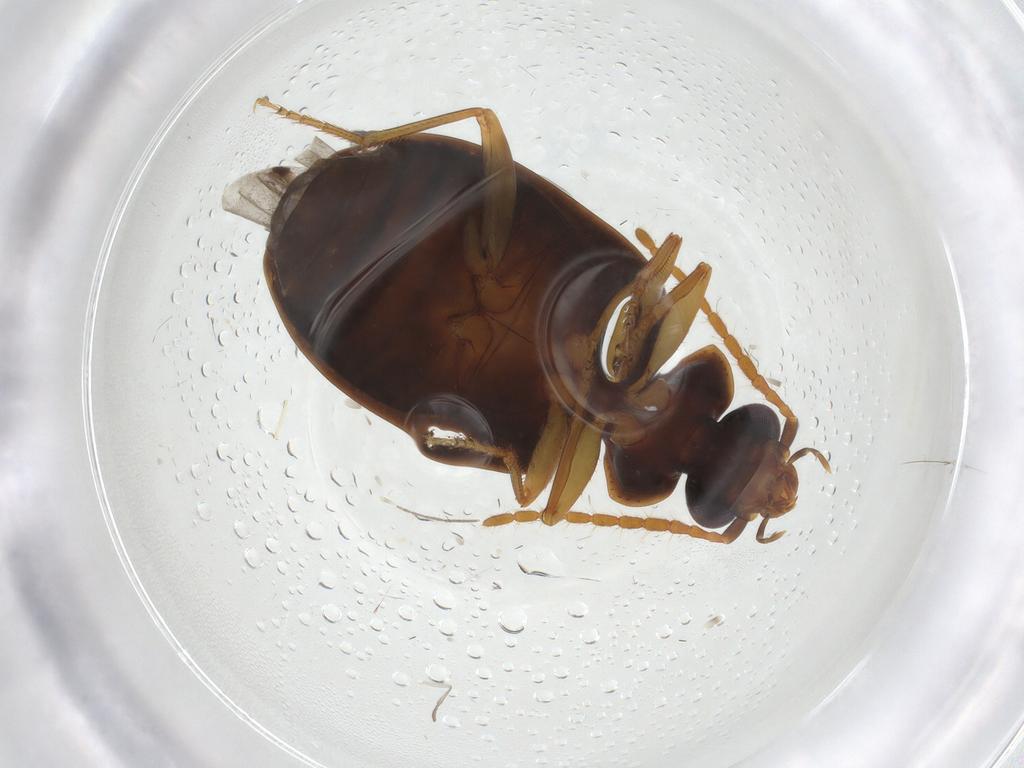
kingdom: Animalia
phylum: Arthropoda
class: Insecta
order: Coleoptera
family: Carabidae
